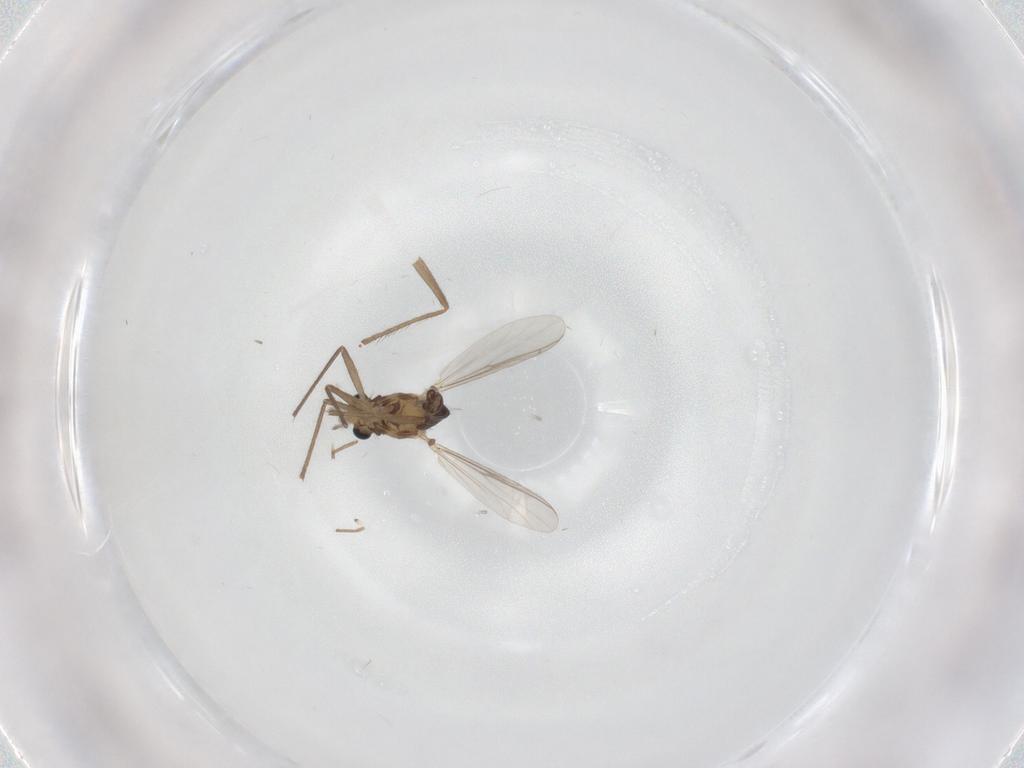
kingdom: Animalia
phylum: Arthropoda
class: Insecta
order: Diptera
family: Chironomidae
